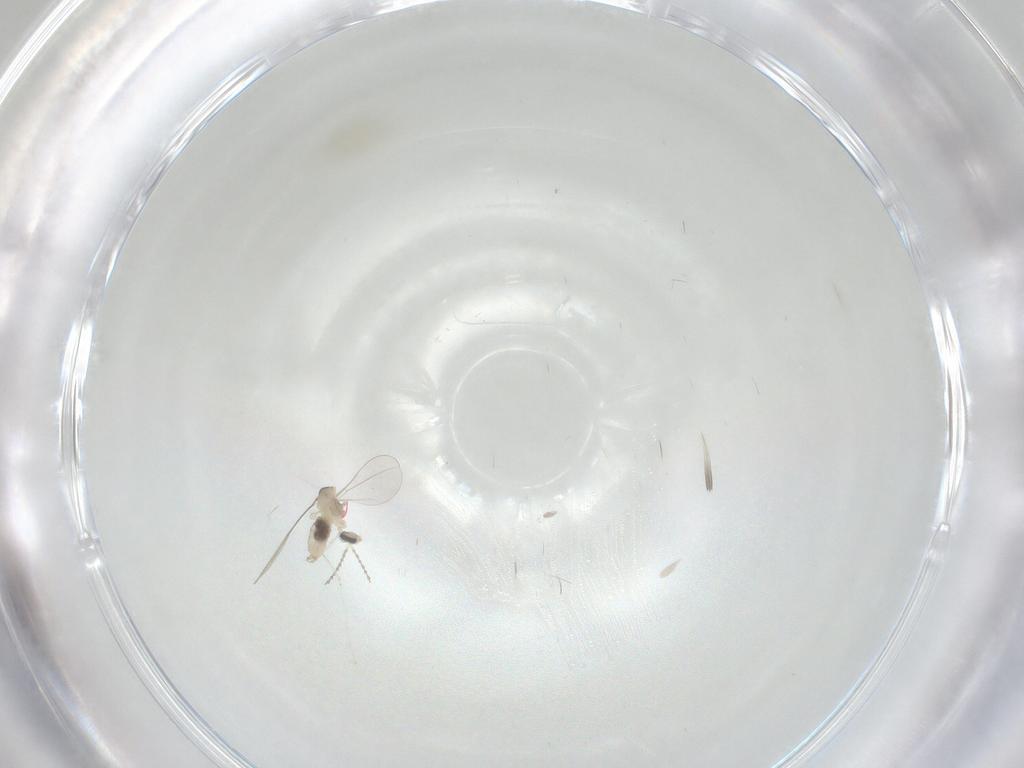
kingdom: Animalia
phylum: Arthropoda
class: Insecta
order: Diptera
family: Cecidomyiidae
